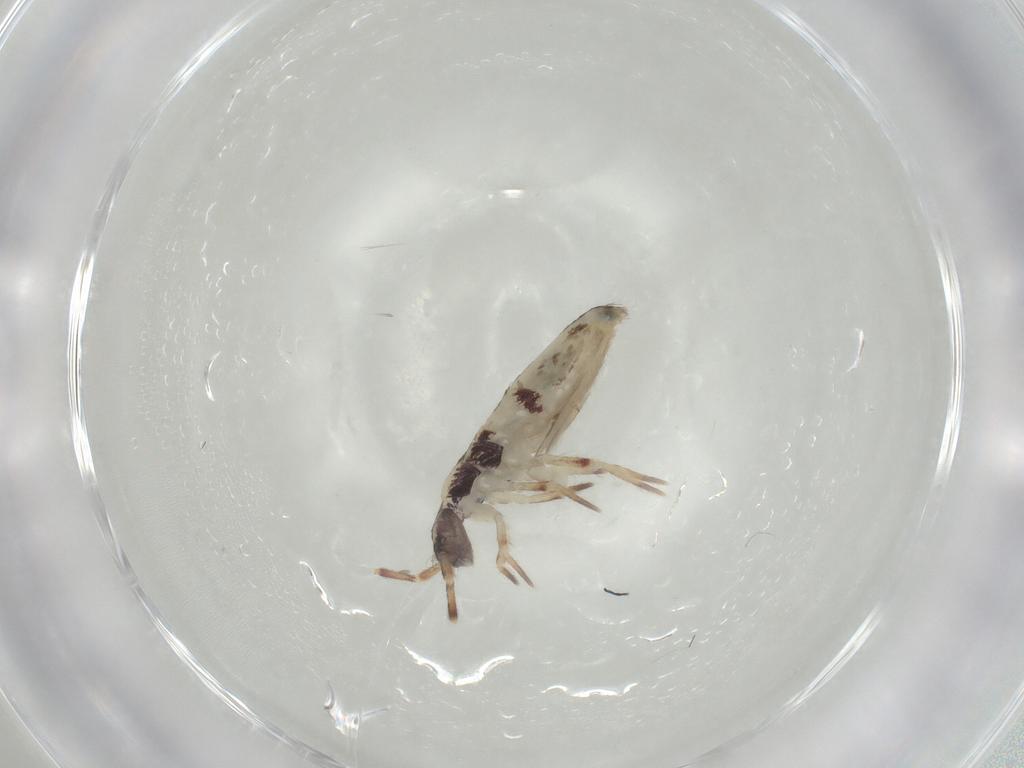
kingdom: Animalia
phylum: Arthropoda
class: Collembola
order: Entomobryomorpha
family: Entomobryidae
